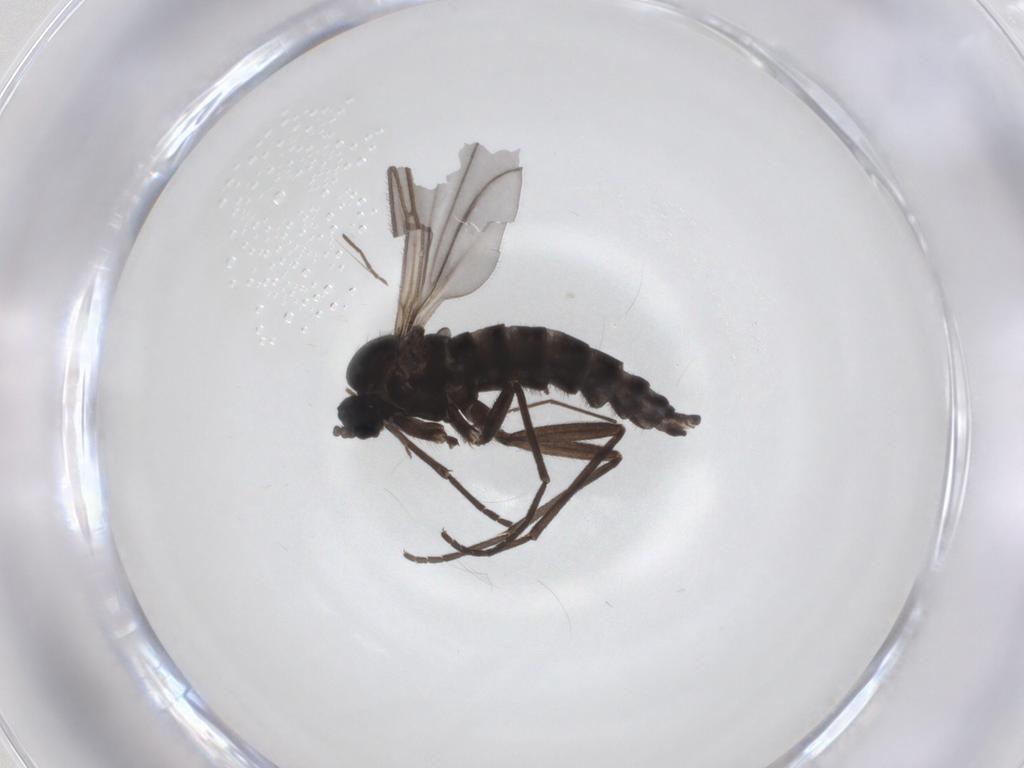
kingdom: Animalia
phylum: Arthropoda
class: Insecta
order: Diptera
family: Sciaridae
